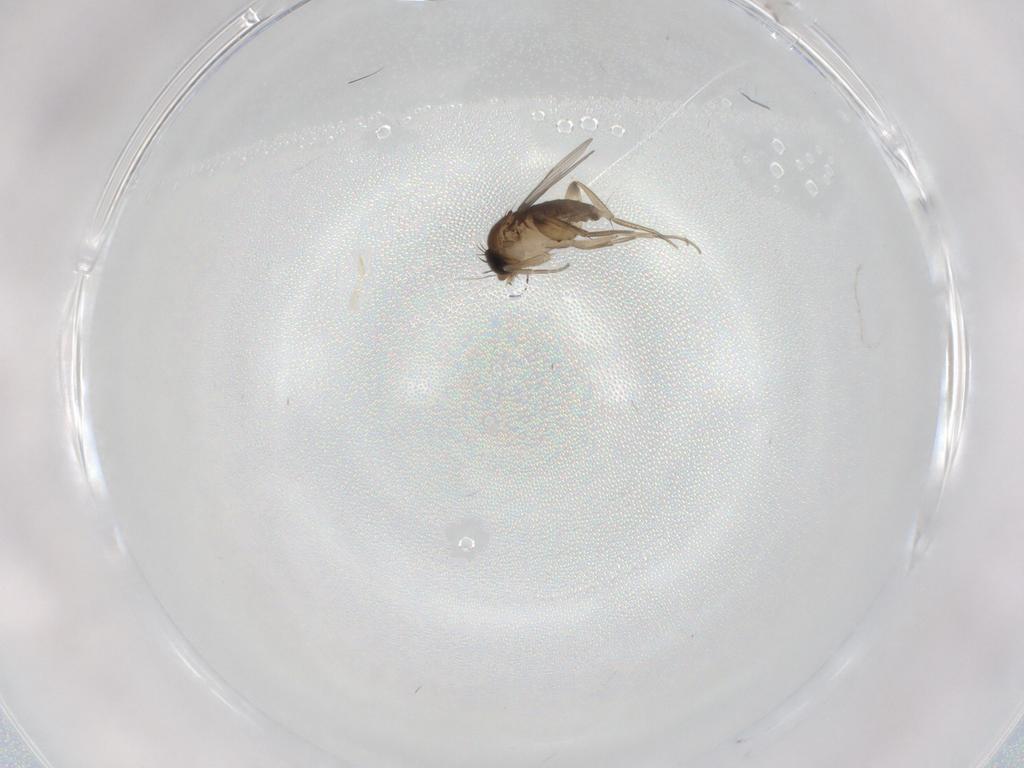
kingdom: Animalia
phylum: Arthropoda
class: Insecta
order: Diptera
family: Phoridae
